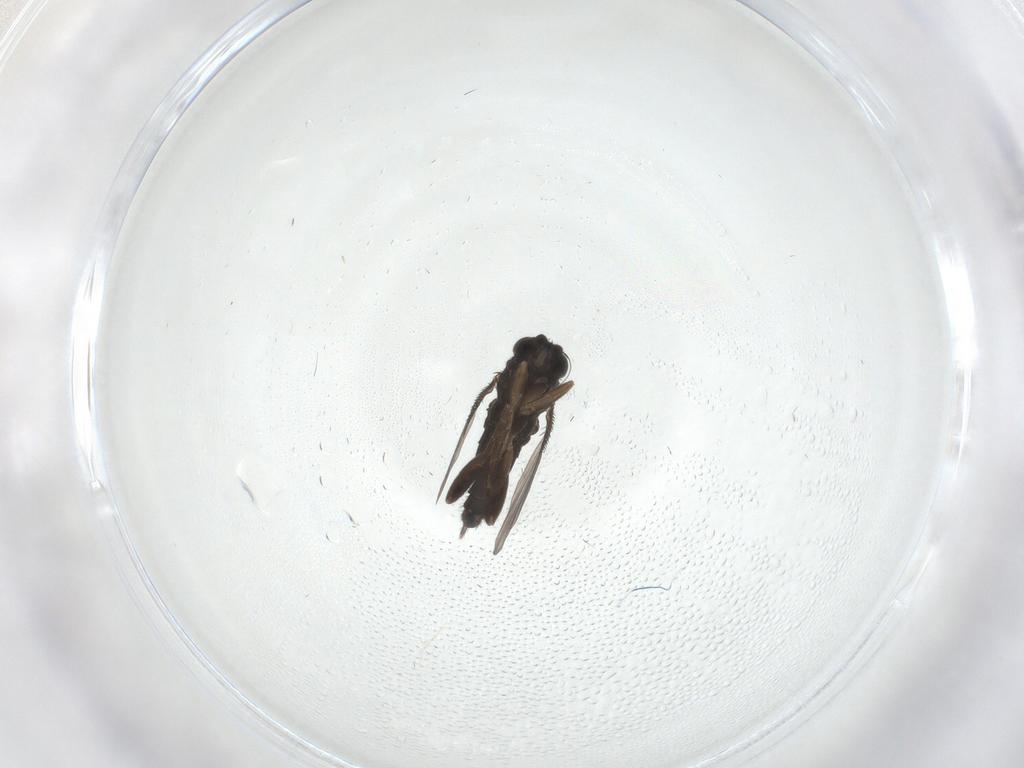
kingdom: Animalia
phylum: Arthropoda
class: Insecta
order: Diptera
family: Phoridae
